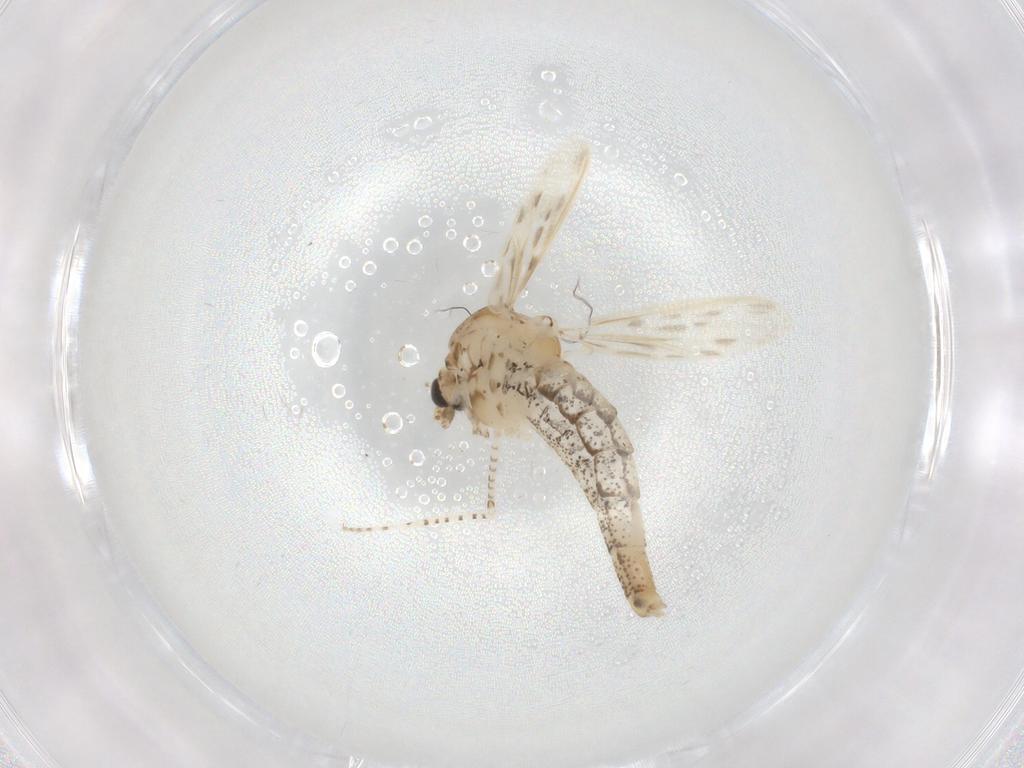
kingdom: Animalia
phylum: Arthropoda
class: Insecta
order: Diptera
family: Chaoboridae
